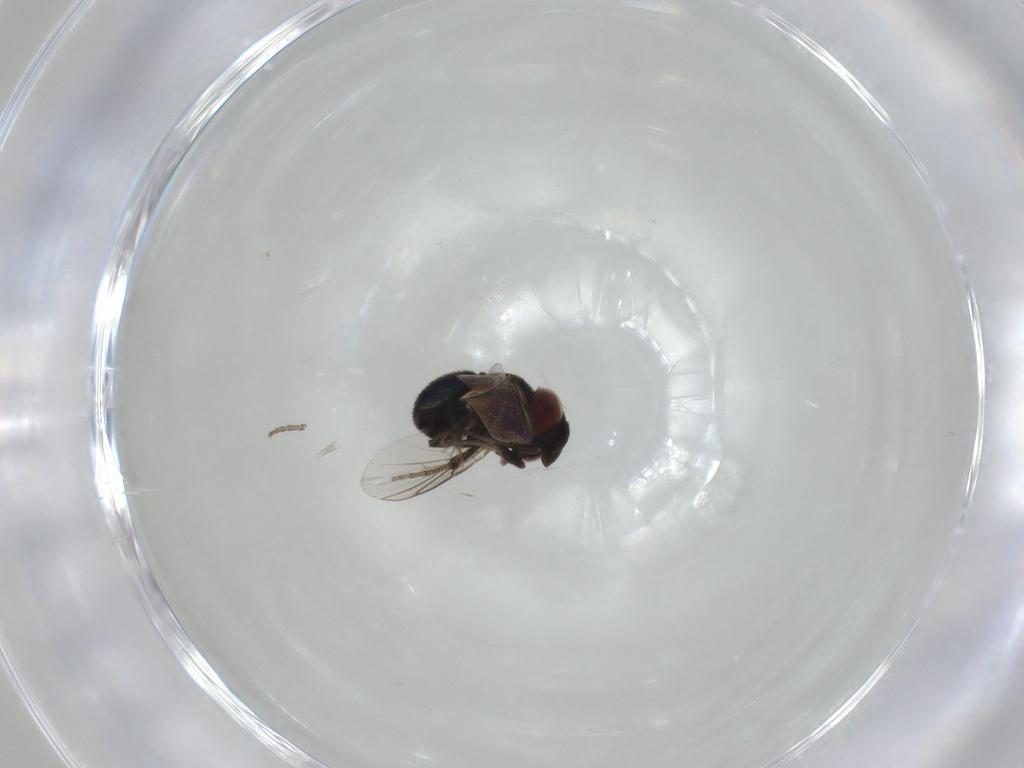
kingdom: Animalia
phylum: Arthropoda
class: Insecta
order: Diptera
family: Cryptochetidae
